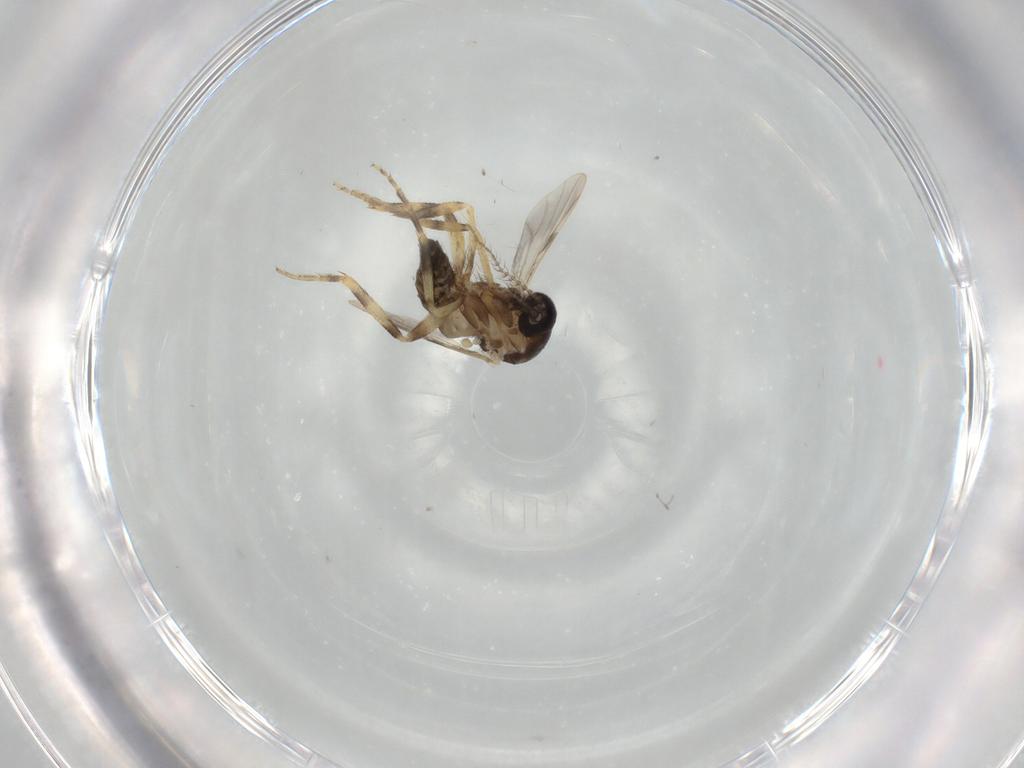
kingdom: Animalia
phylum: Arthropoda
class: Insecta
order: Diptera
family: Ceratopogonidae
